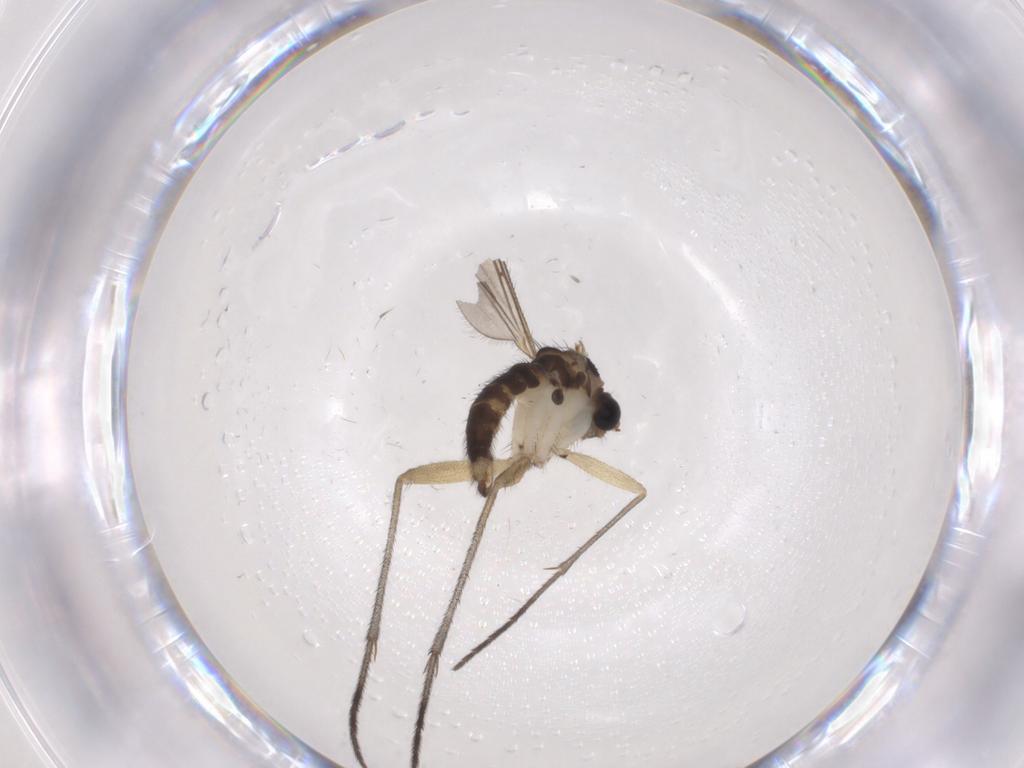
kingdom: Animalia
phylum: Arthropoda
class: Insecta
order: Diptera
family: Sciaridae
